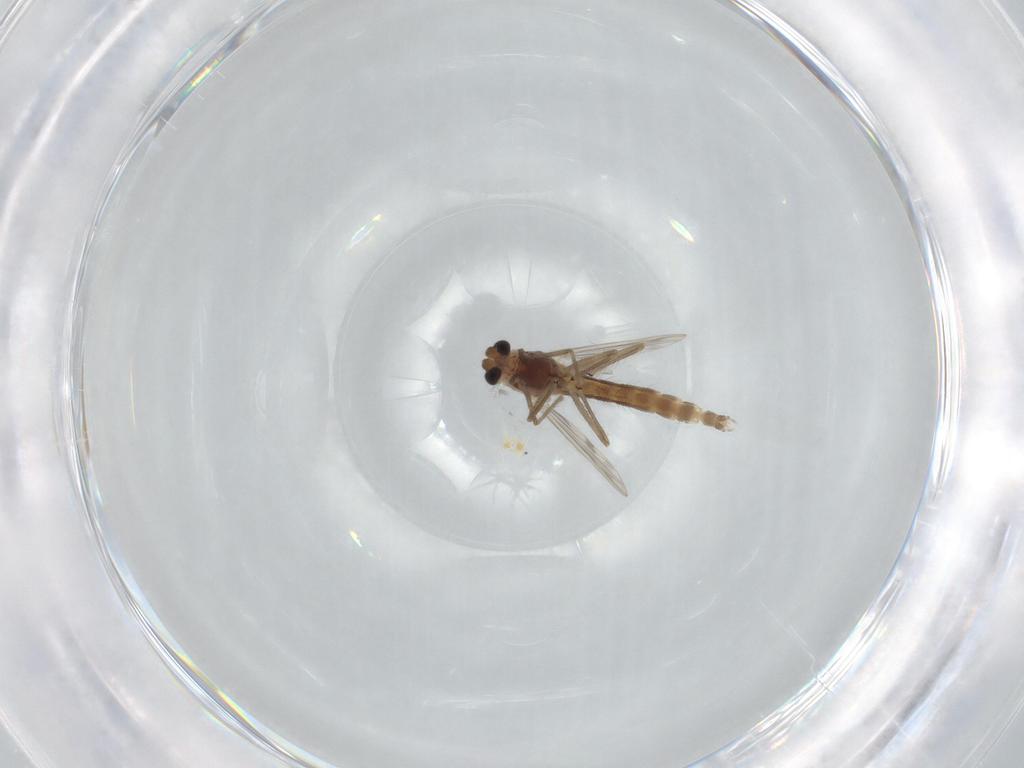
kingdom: Animalia
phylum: Arthropoda
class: Insecta
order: Diptera
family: Chironomidae
